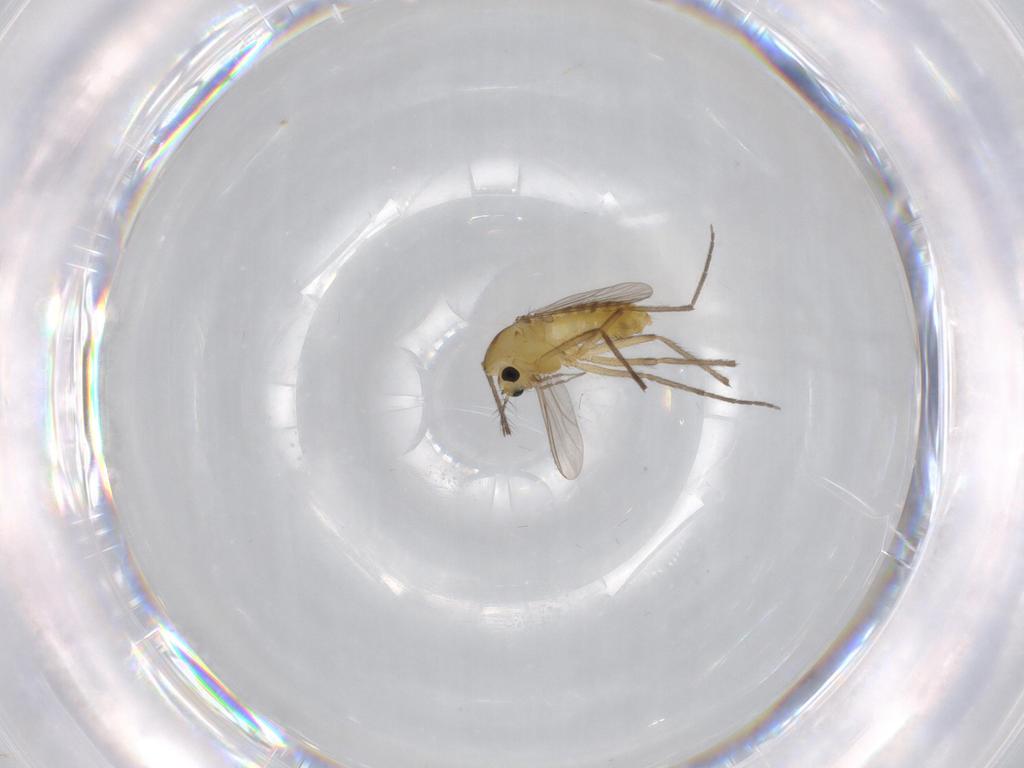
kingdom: Animalia
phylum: Arthropoda
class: Insecta
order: Diptera
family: Chironomidae
